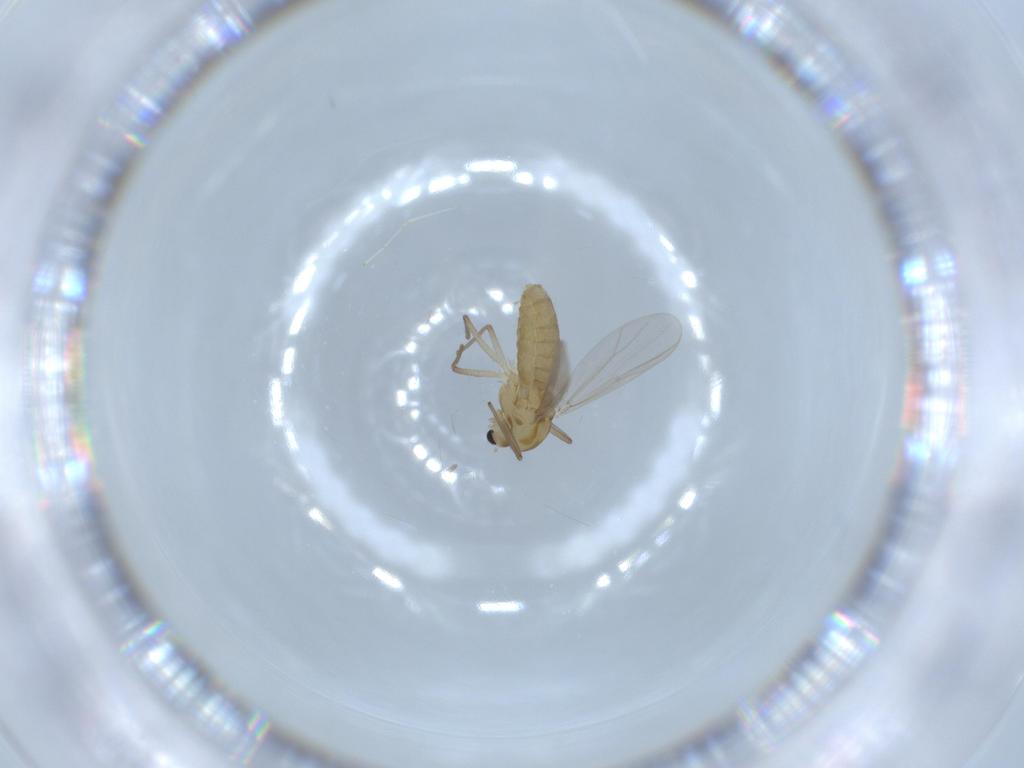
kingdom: Animalia
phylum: Arthropoda
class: Insecta
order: Diptera
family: Chironomidae
